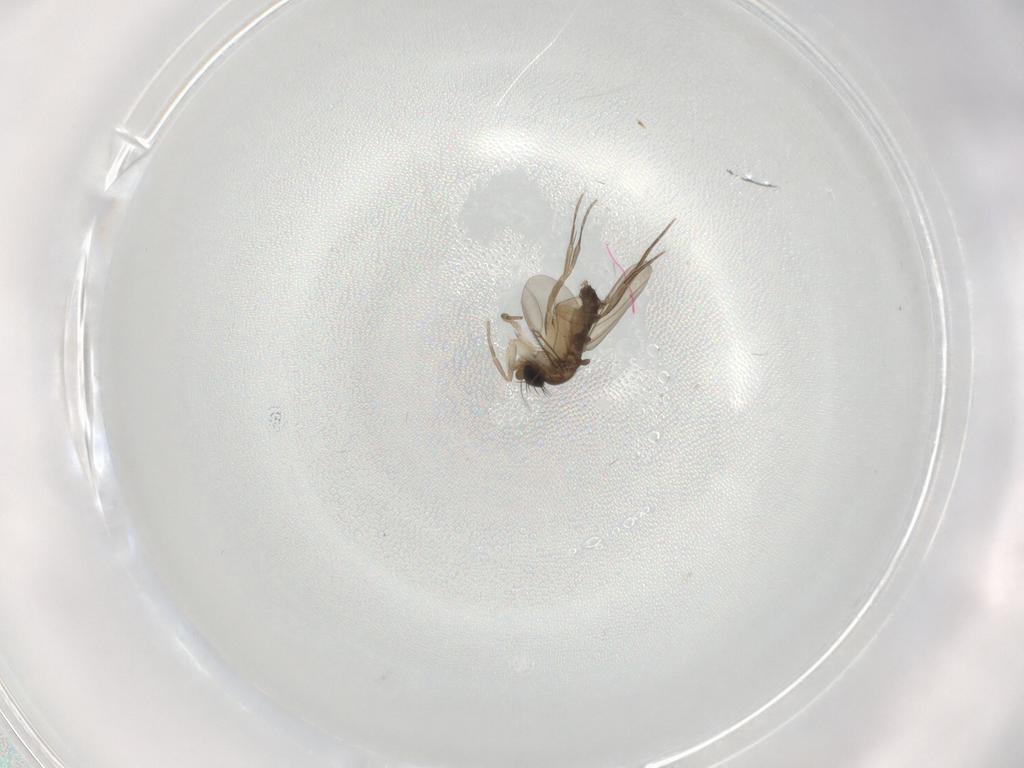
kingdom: Animalia
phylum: Arthropoda
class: Insecta
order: Diptera
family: Phoridae
